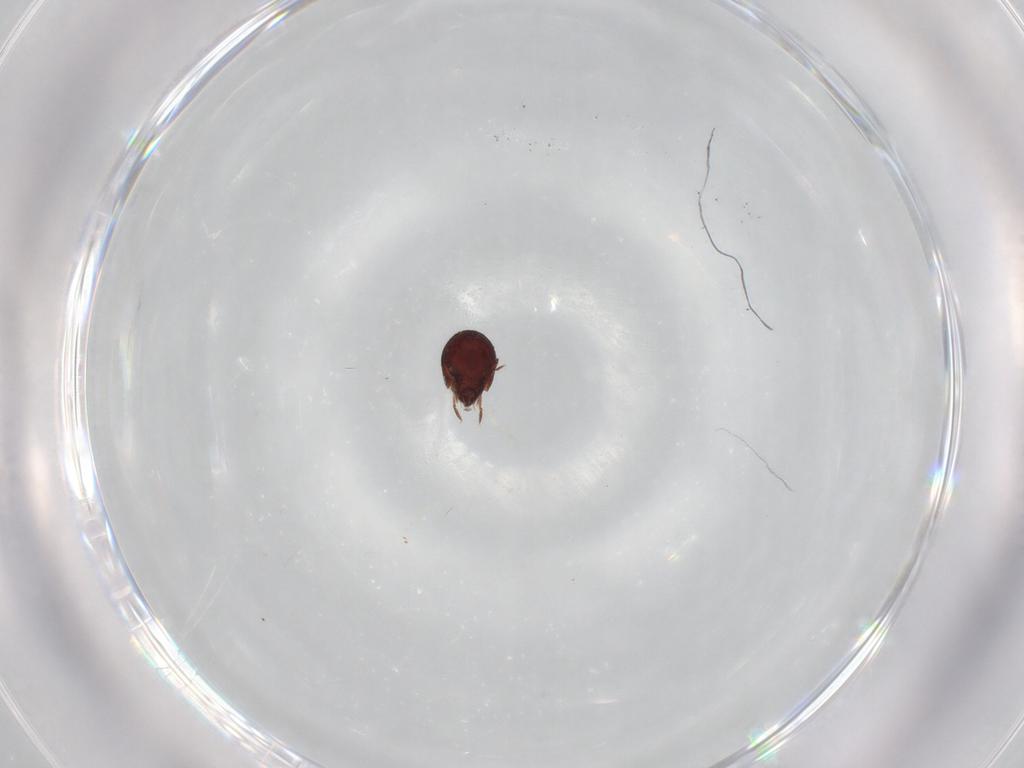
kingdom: Animalia
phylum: Arthropoda
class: Arachnida
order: Sarcoptiformes
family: Humerobatidae
